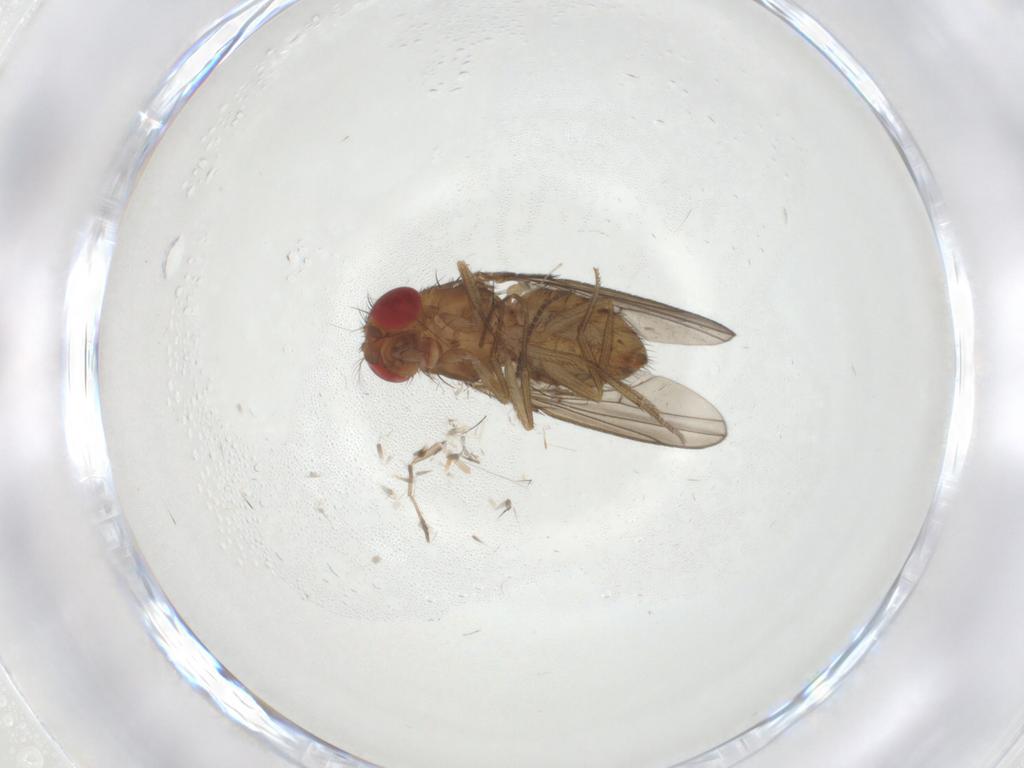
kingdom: Animalia
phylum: Arthropoda
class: Insecta
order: Diptera
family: Drosophilidae
